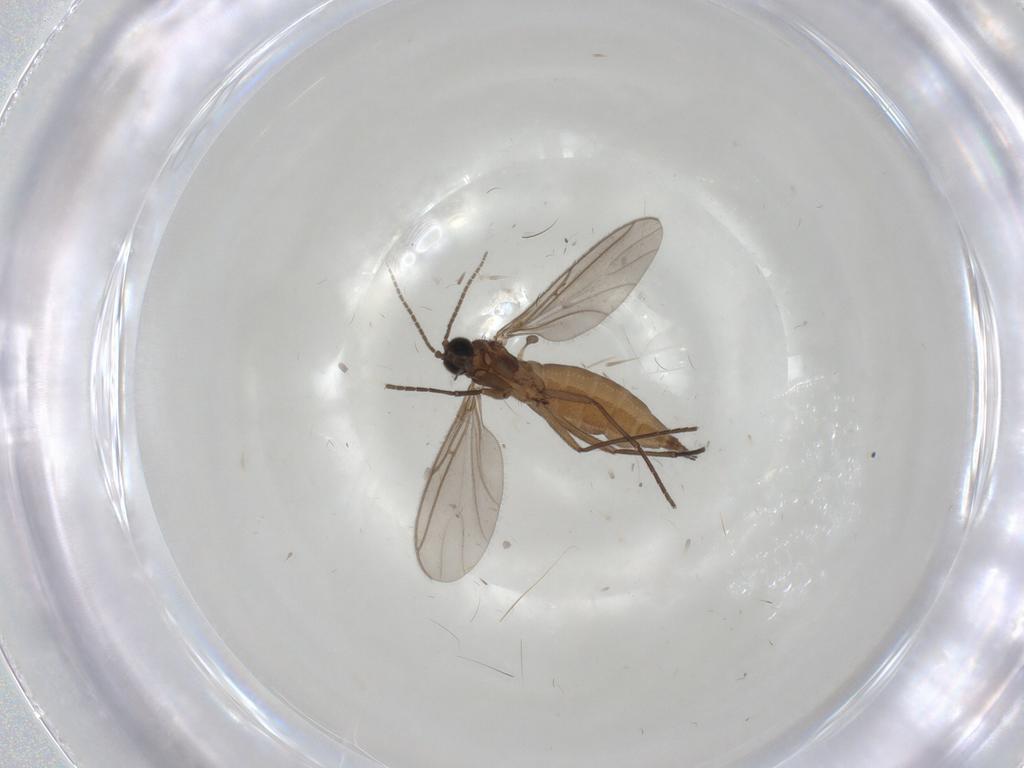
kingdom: Animalia
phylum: Arthropoda
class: Insecta
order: Diptera
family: Sciaridae
